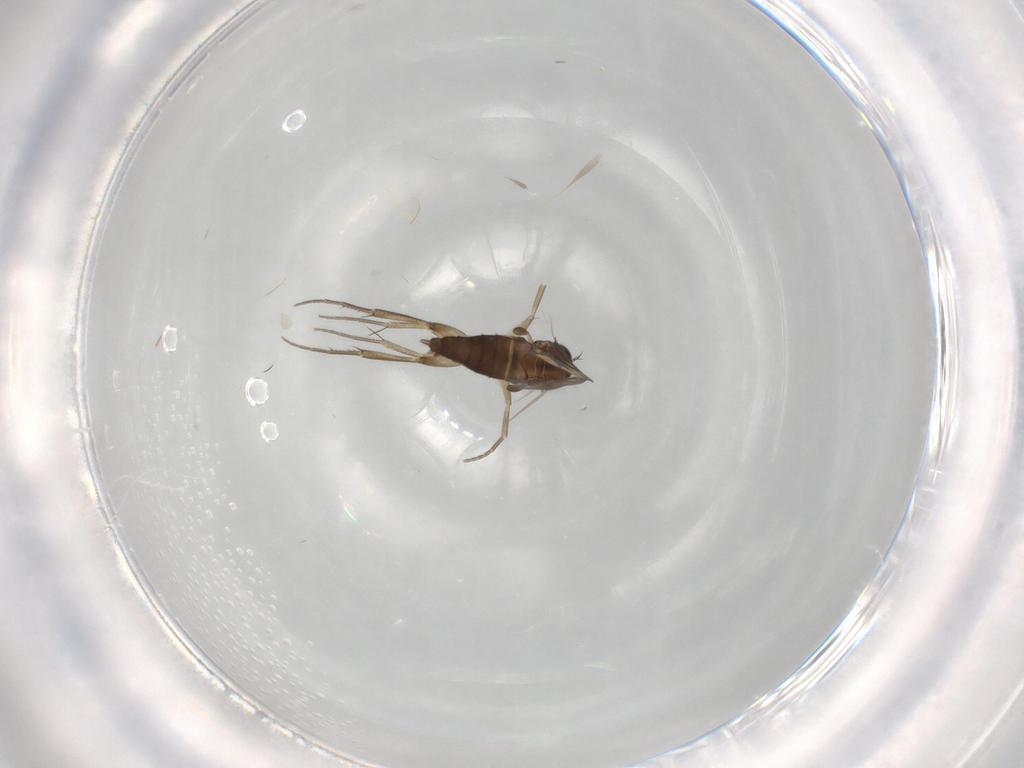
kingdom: Animalia
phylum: Arthropoda
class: Insecta
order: Diptera
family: Phoridae
